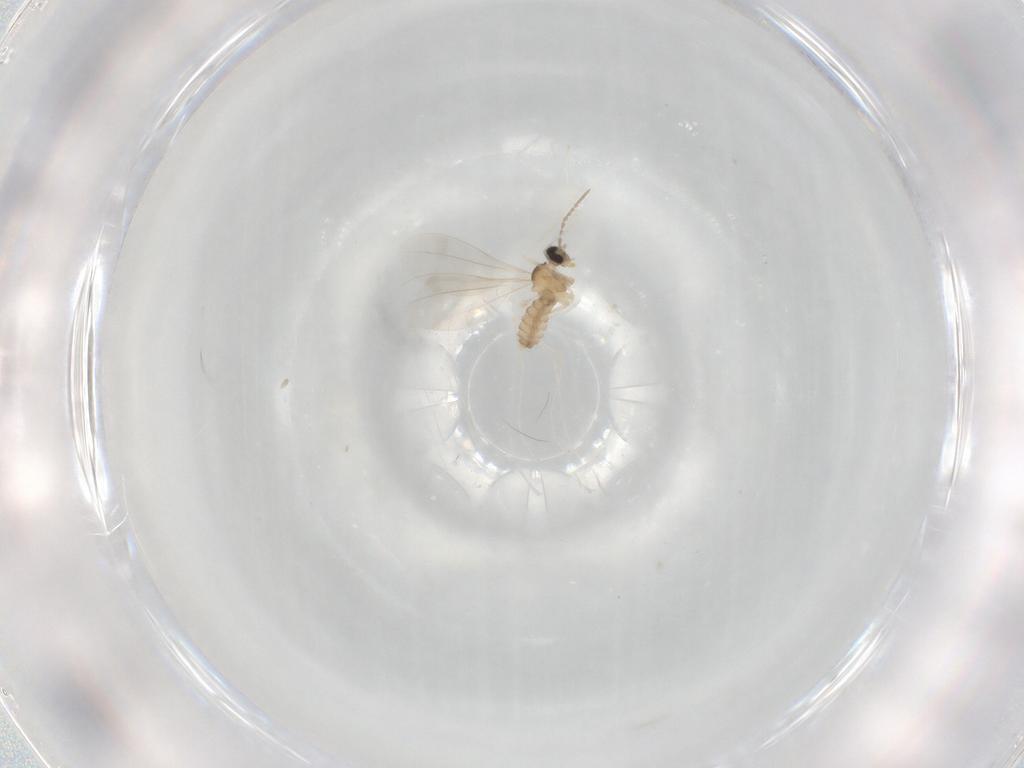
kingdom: Animalia
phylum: Arthropoda
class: Insecta
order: Diptera
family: Cecidomyiidae
